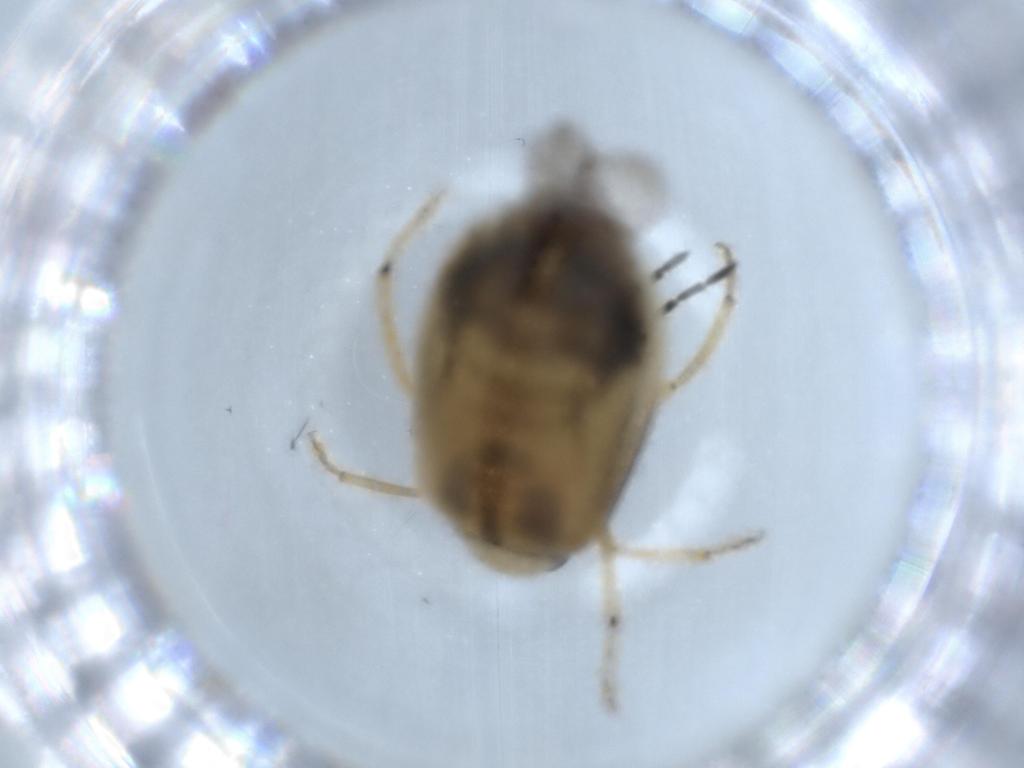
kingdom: Animalia
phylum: Arthropoda
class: Insecta
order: Coleoptera
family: Chrysomelidae
